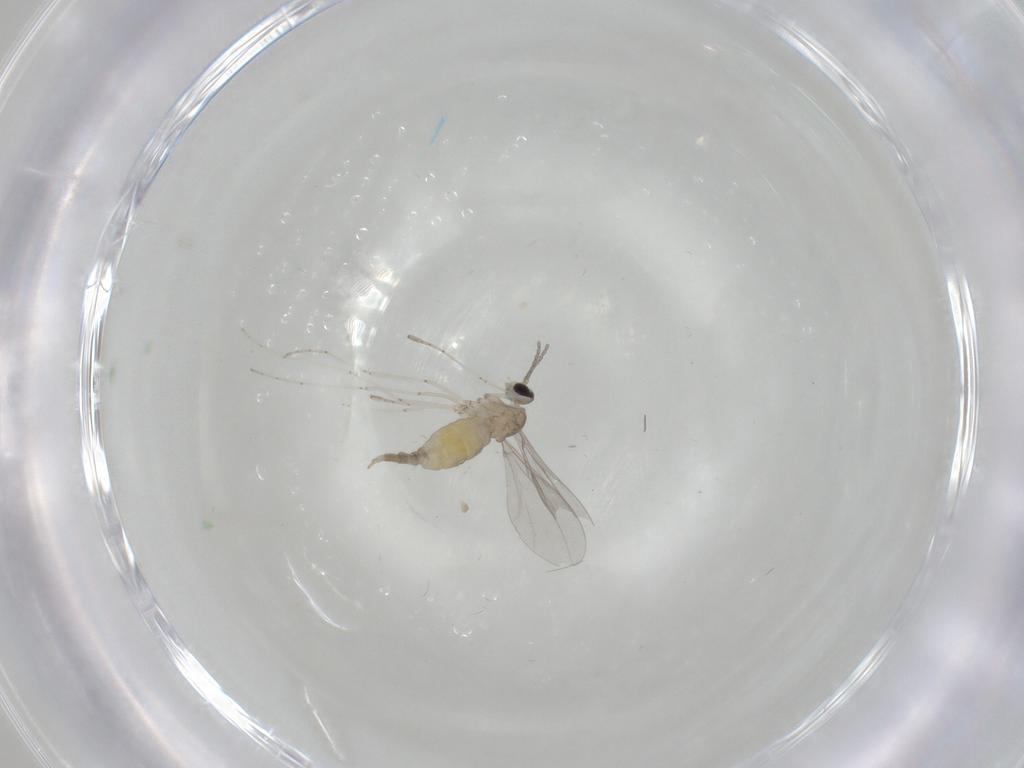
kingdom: Animalia
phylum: Arthropoda
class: Insecta
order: Diptera
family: Cecidomyiidae
